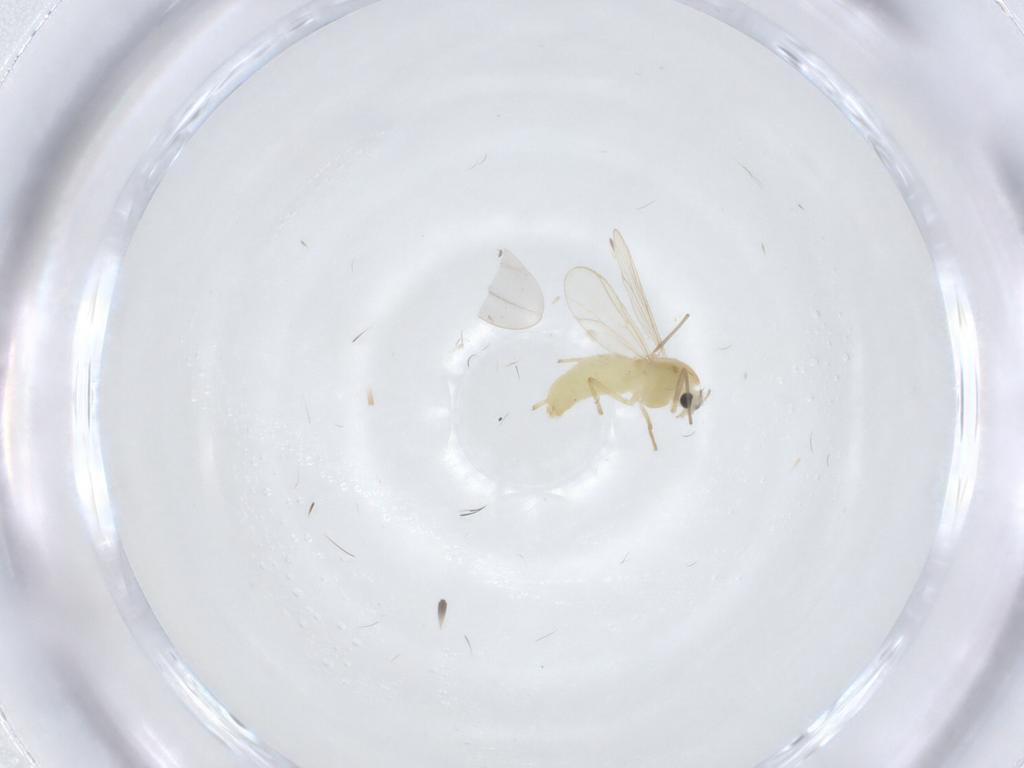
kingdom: Animalia
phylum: Arthropoda
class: Insecta
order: Diptera
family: Chironomidae
